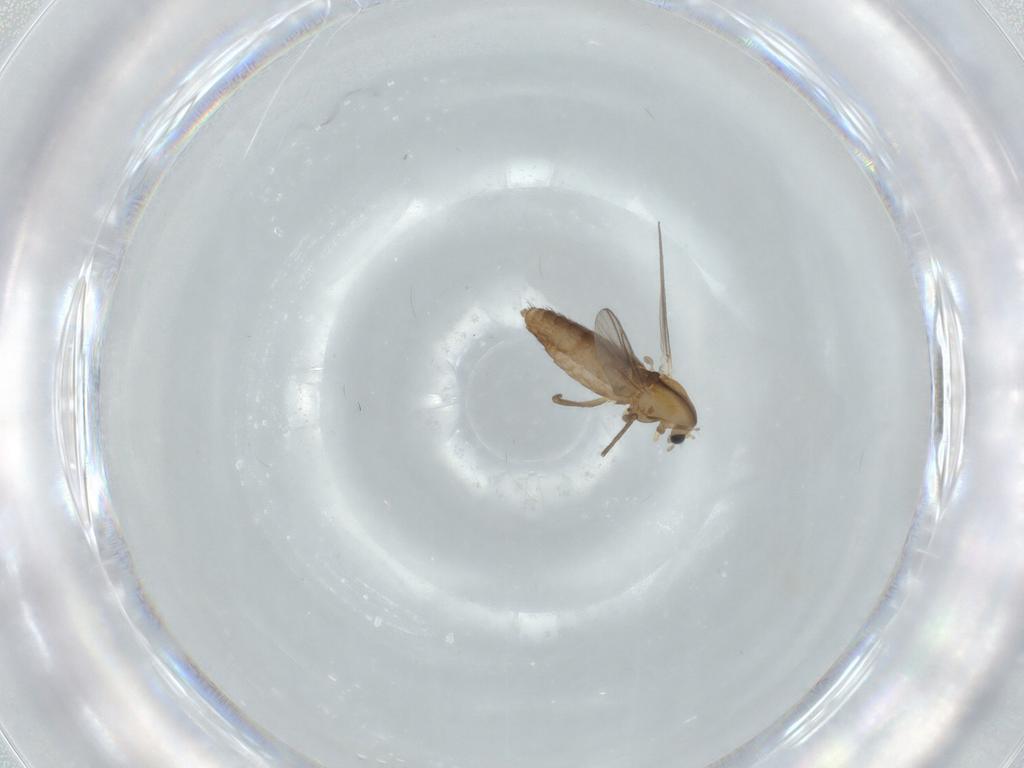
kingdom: Animalia
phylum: Arthropoda
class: Insecta
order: Diptera
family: Chironomidae
